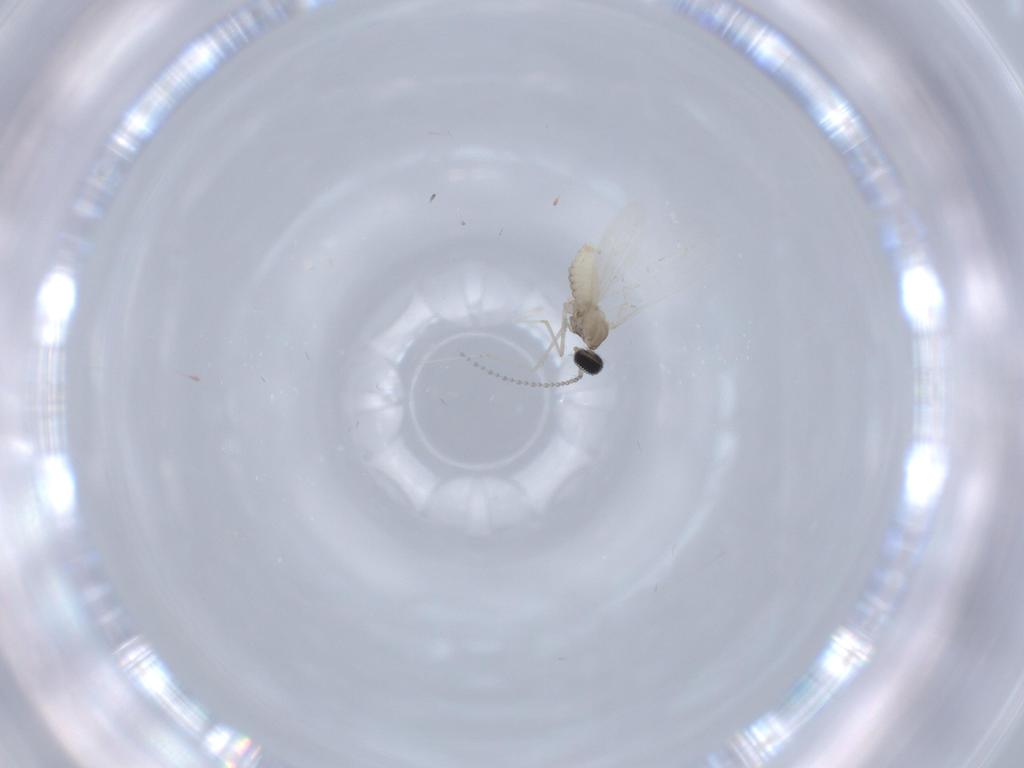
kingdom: Animalia
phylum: Arthropoda
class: Insecta
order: Diptera
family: Cecidomyiidae
